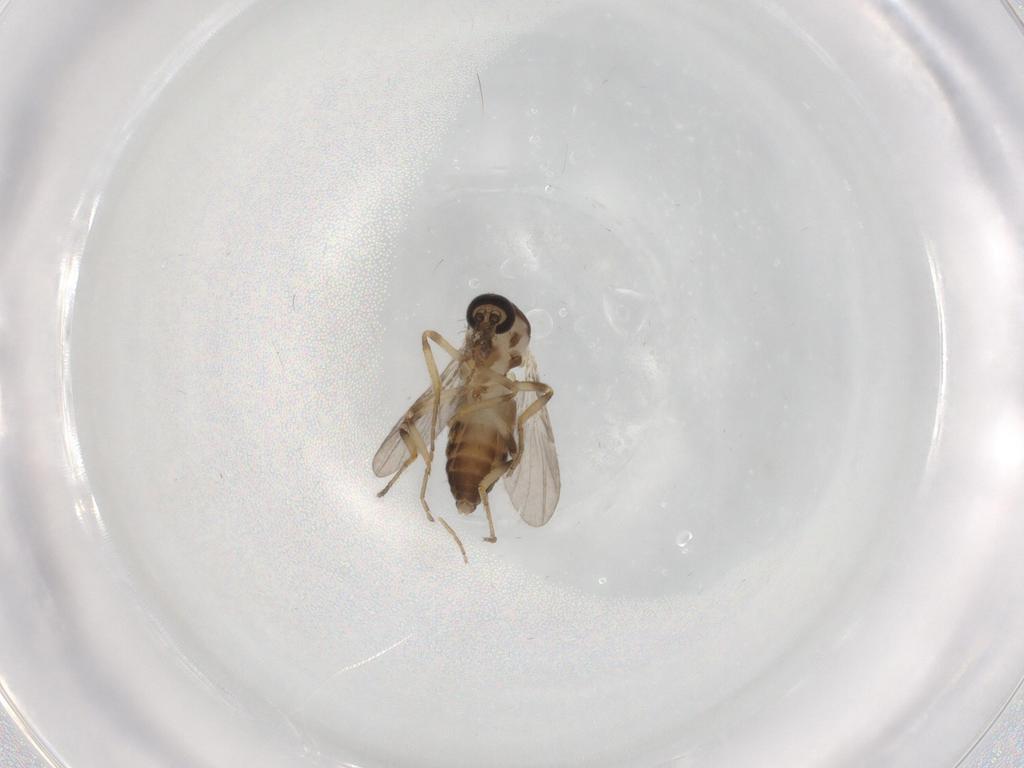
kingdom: Animalia
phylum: Arthropoda
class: Insecta
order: Diptera
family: Ceratopogonidae
